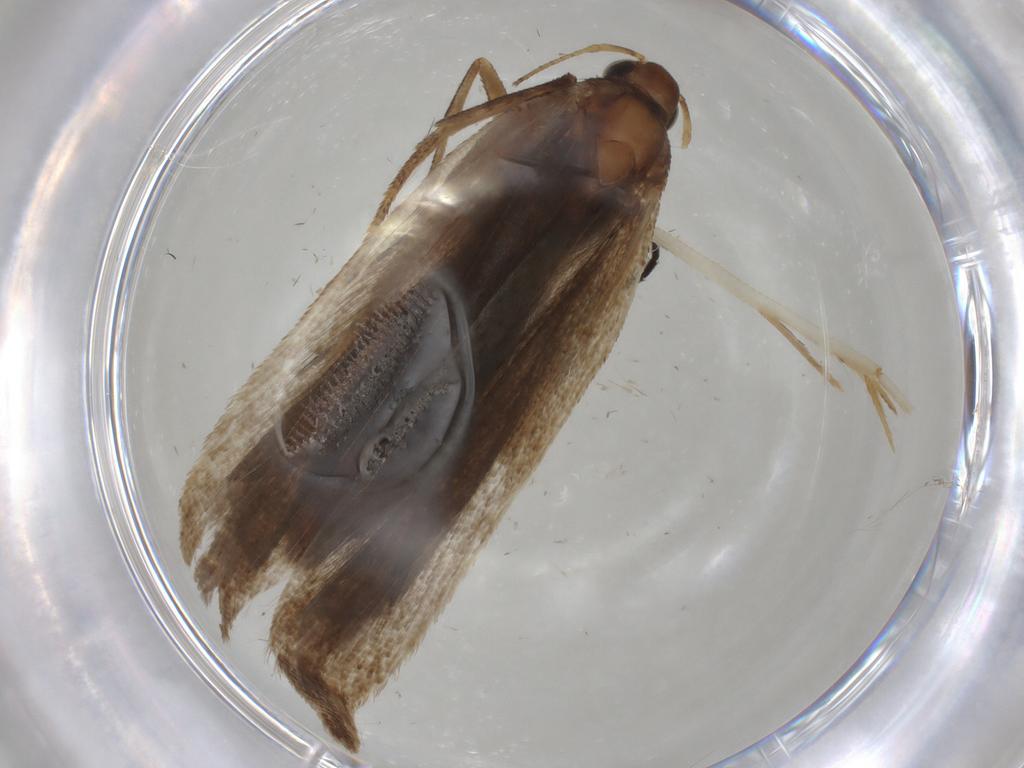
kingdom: Animalia
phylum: Arthropoda
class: Insecta
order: Lepidoptera
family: Gelechiidae
